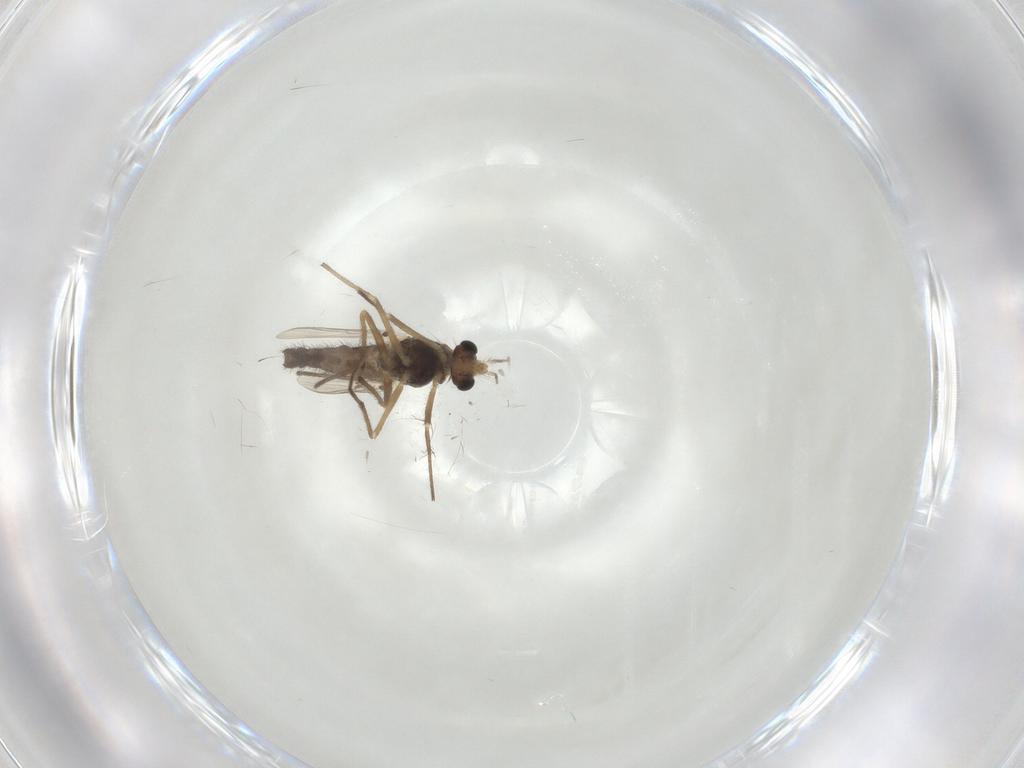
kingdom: Animalia
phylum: Arthropoda
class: Insecta
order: Diptera
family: Chironomidae
